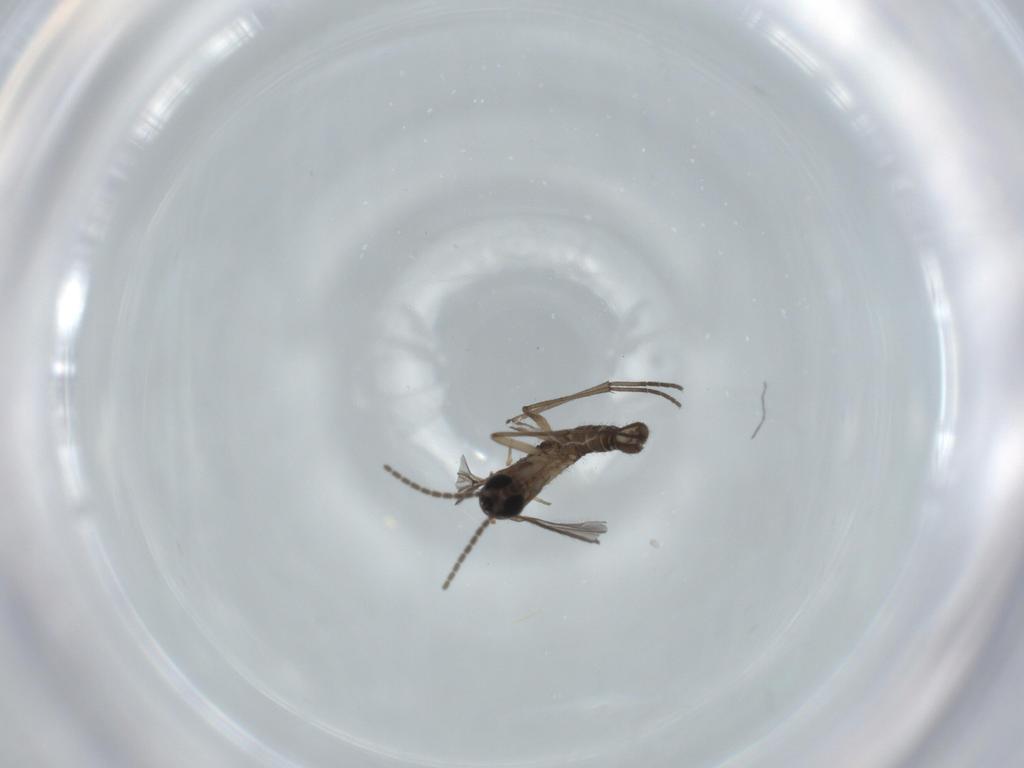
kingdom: Animalia
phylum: Arthropoda
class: Insecta
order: Diptera
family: Sciaridae
